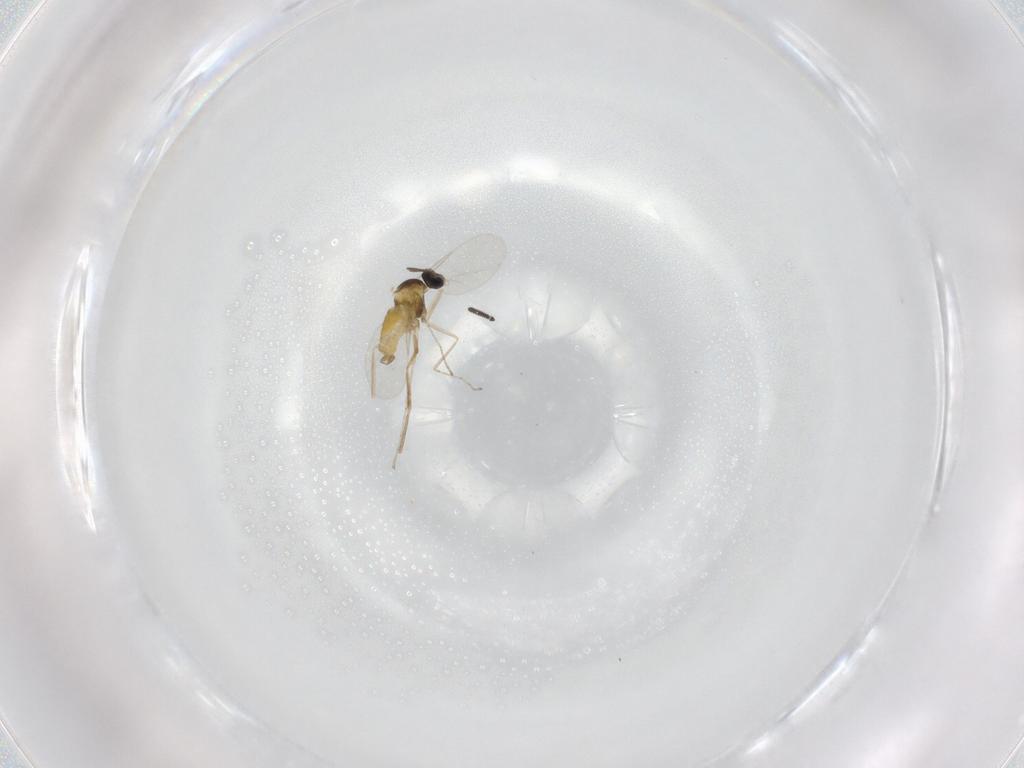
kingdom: Animalia
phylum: Arthropoda
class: Insecta
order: Diptera
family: Cecidomyiidae
